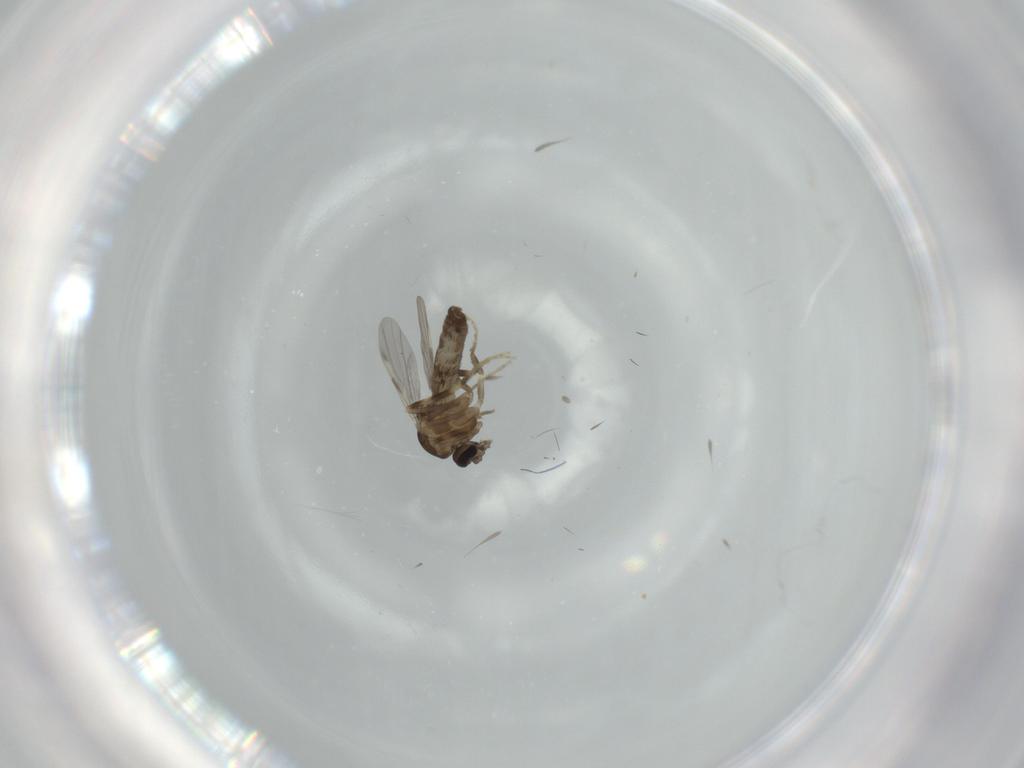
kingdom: Animalia
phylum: Arthropoda
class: Insecta
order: Diptera
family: Ceratopogonidae
